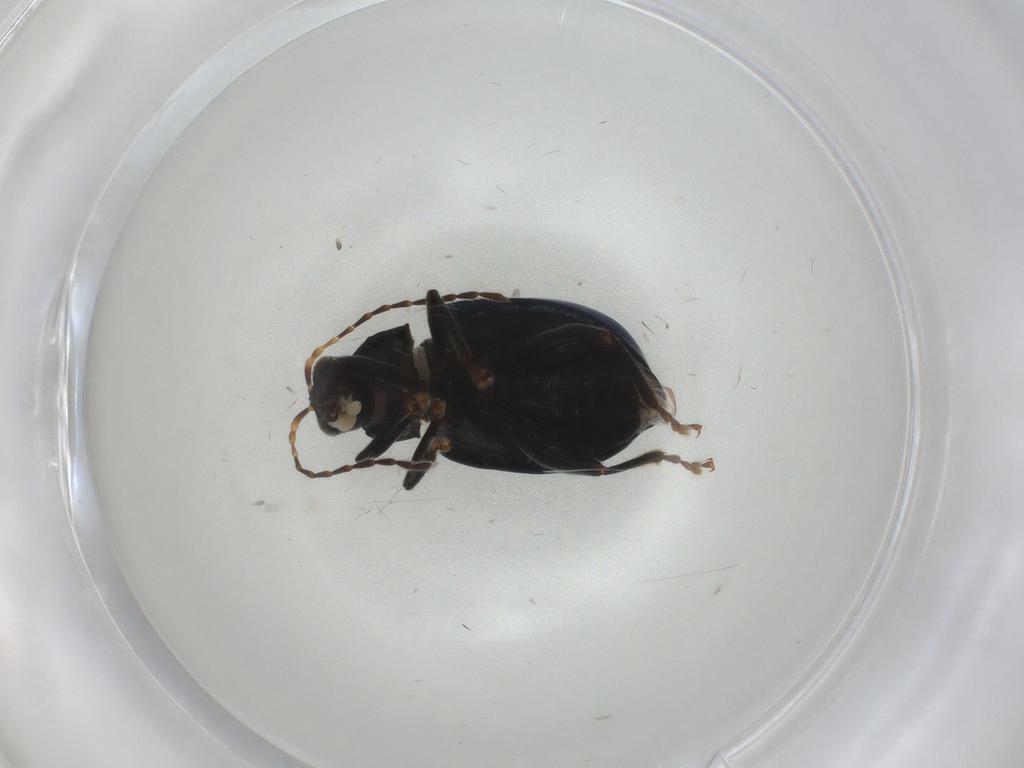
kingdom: Animalia
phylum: Arthropoda
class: Insecta
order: Coleoptera
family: Chrysomelidae
